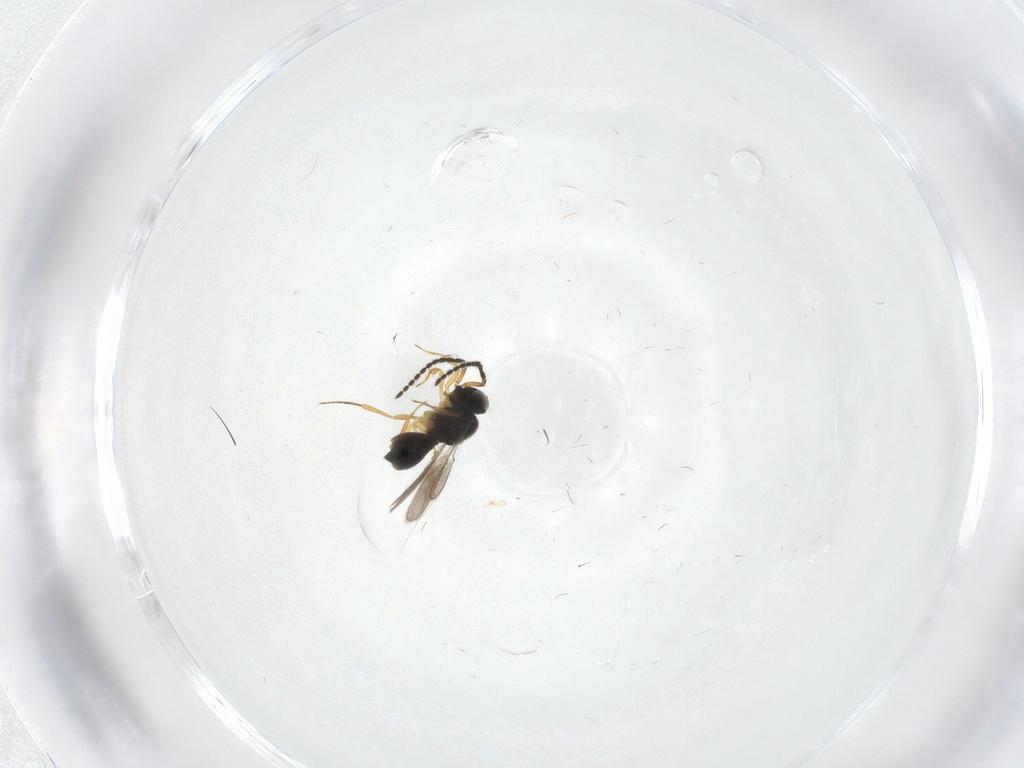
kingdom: Animalia
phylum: Arthropoda
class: Insecta
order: Hymenoptera
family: Scelionidae
